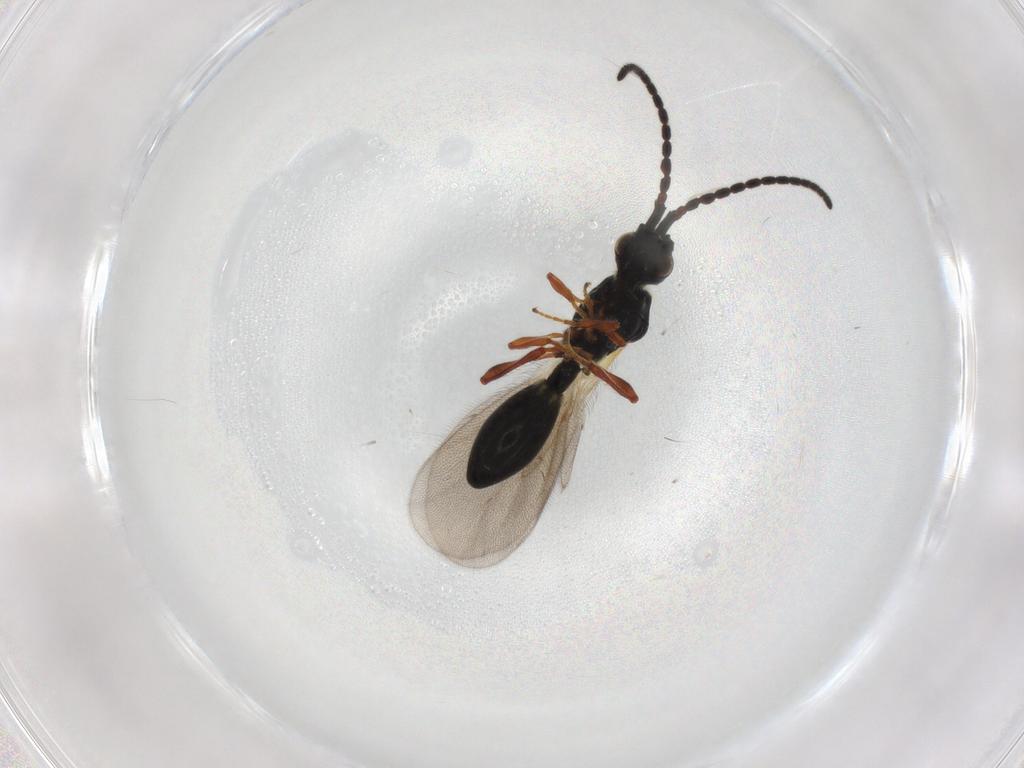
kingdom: Animalia
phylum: Arthropoda
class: Insecta
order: Hymenoptera
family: Diapriidae
